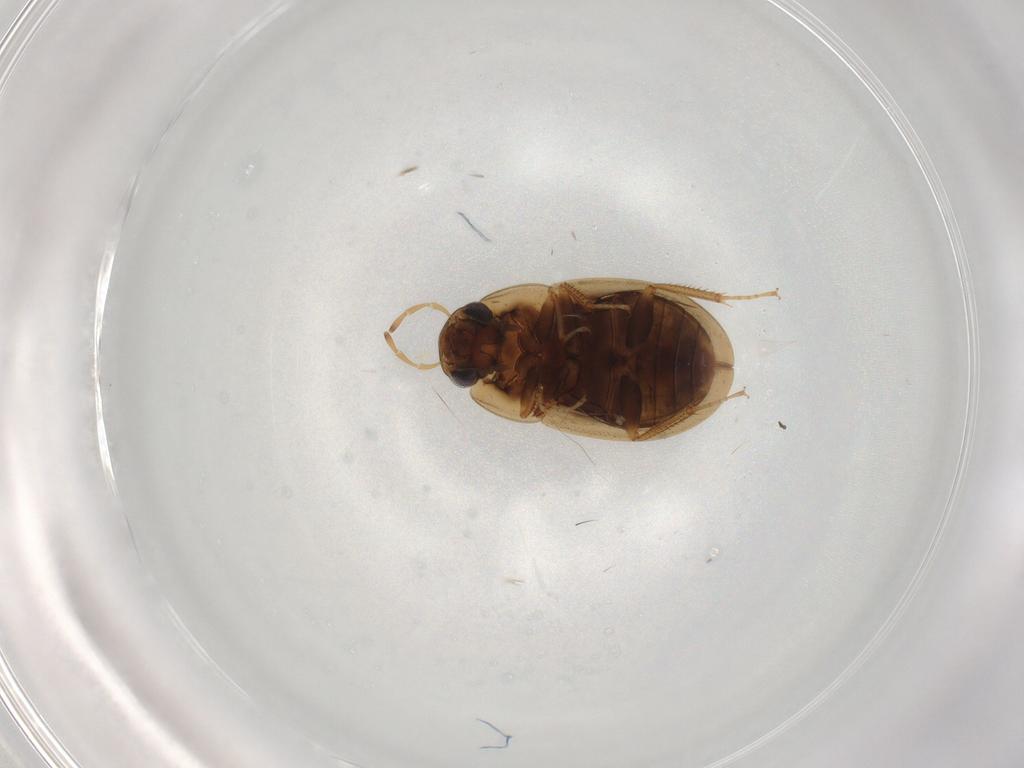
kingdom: Animalia
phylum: Arthropoda
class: Insecta
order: Coleoptera
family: Hydrophilidae
